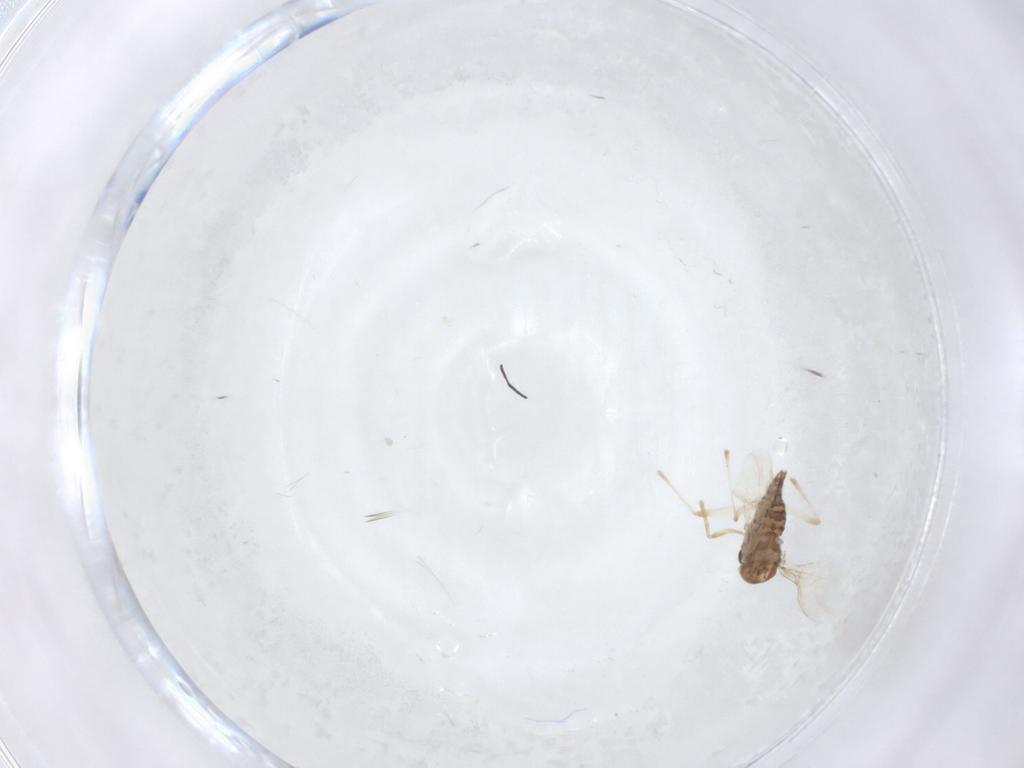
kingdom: Animalia
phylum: Arthropoda
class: Insecta
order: Diptera
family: Chironomidae
